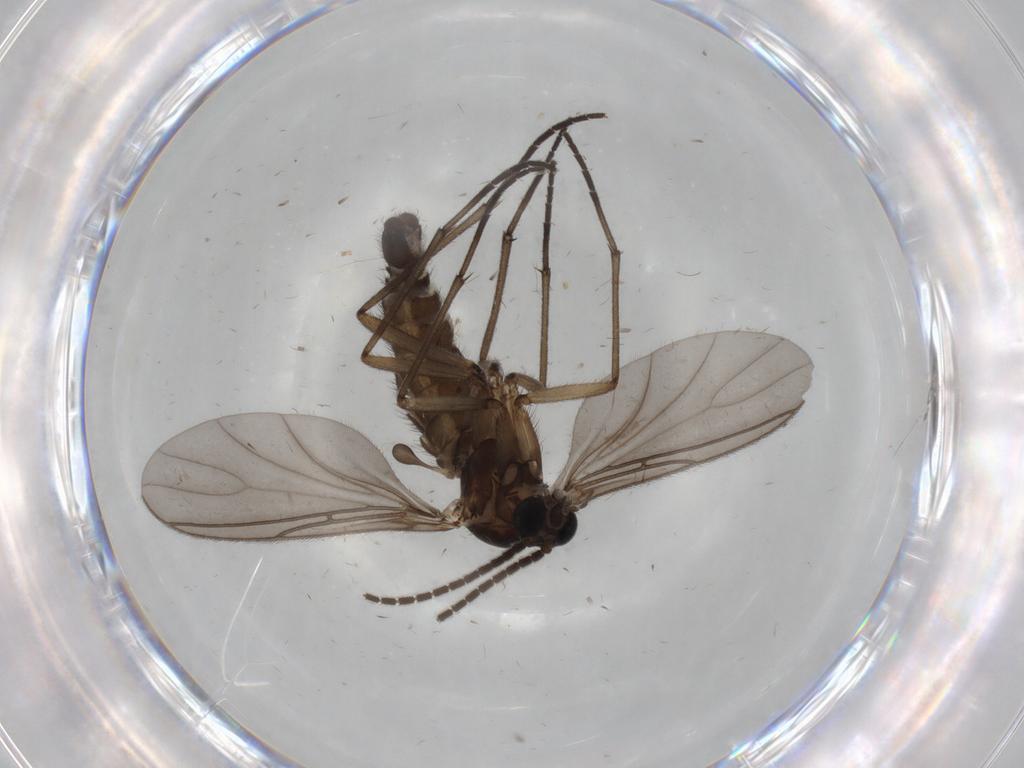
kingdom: Animalia
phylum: Arthropoda
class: Insecta
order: Diptera
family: Sciaridae
